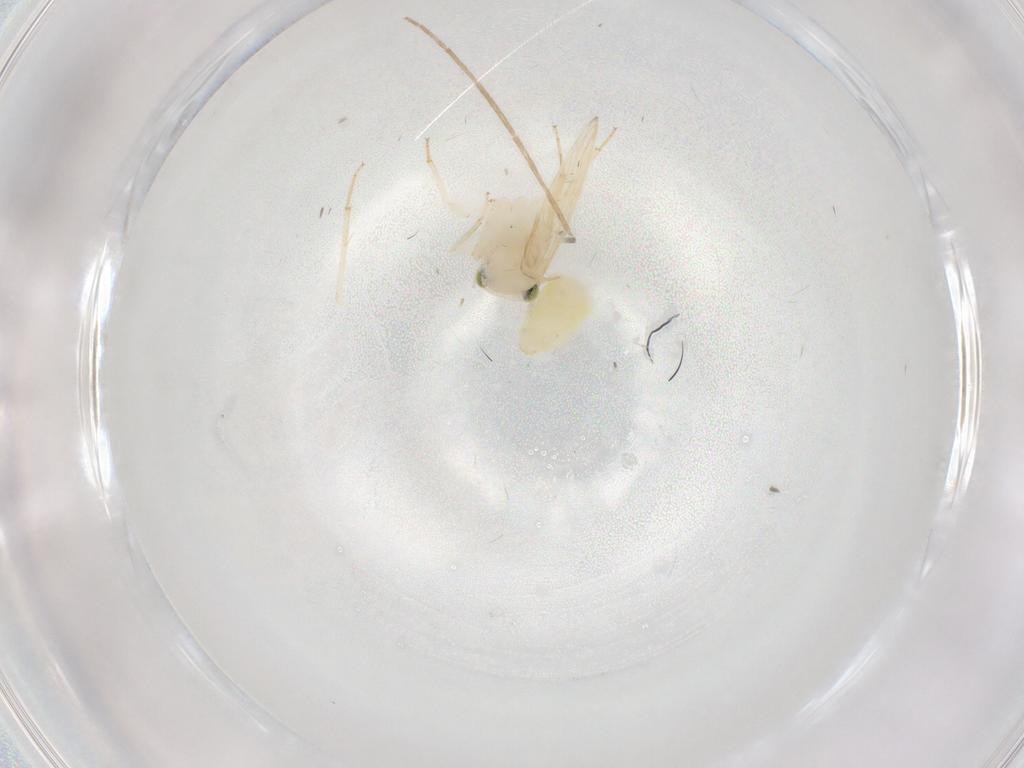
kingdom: Animalia
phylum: Arthropoda
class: Insecta
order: Psocodea
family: Lepidopsocidae
